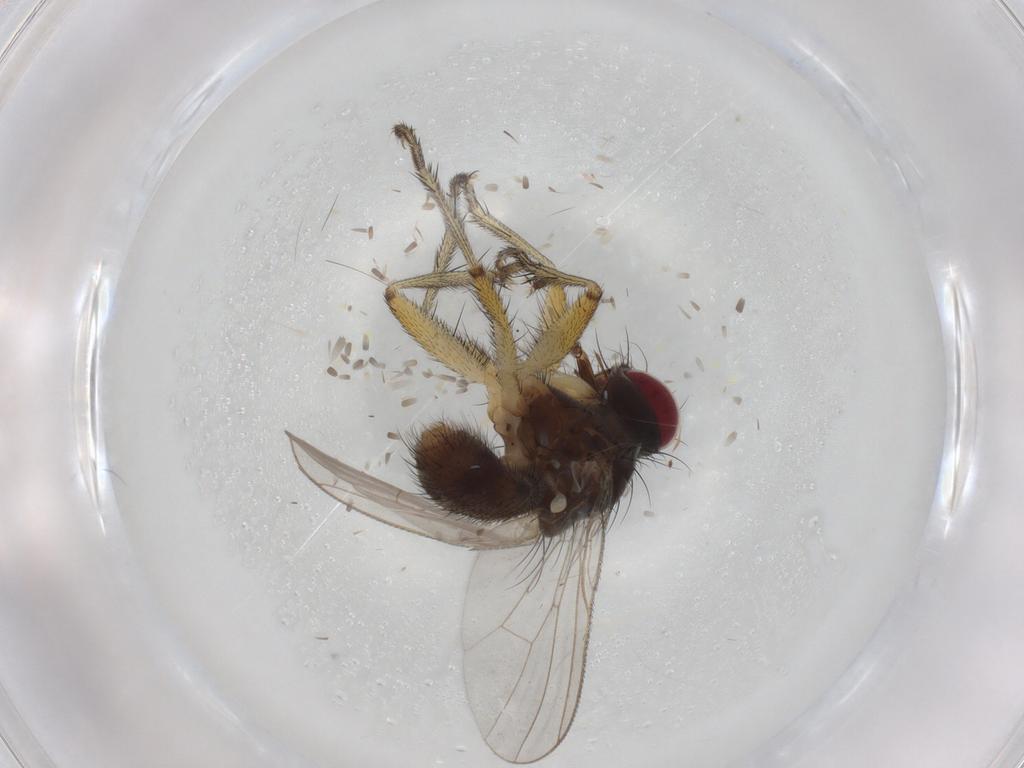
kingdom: Animalia
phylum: Arthropoda
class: Insecta
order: Diptera
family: Muscidae
